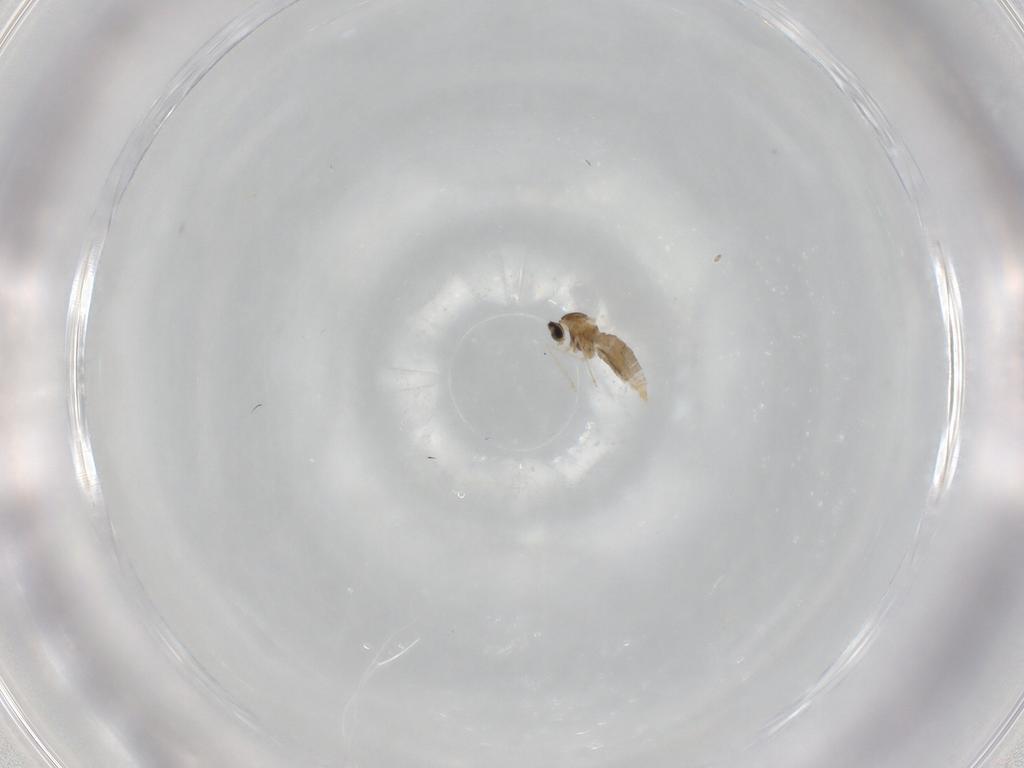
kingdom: Animalia
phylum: Arthropoda
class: Insecta
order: Diptera
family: Cecidomyiidae
